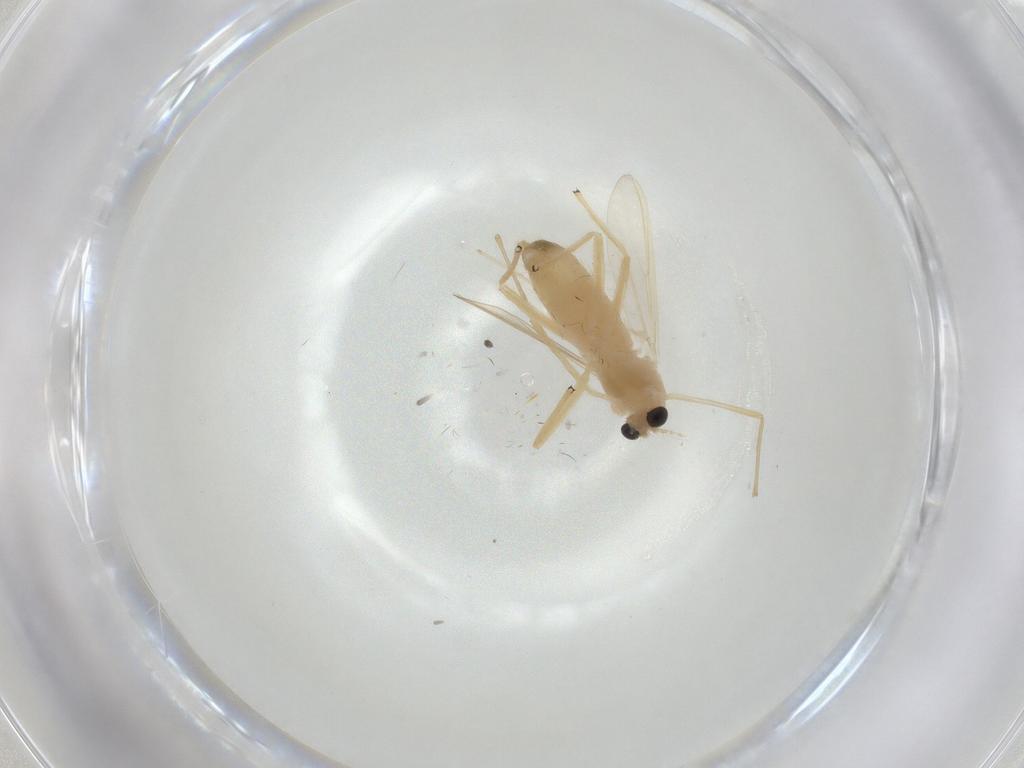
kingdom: Animalia
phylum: Arthropoda
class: Insecta
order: Diptera
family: Chironomidae
